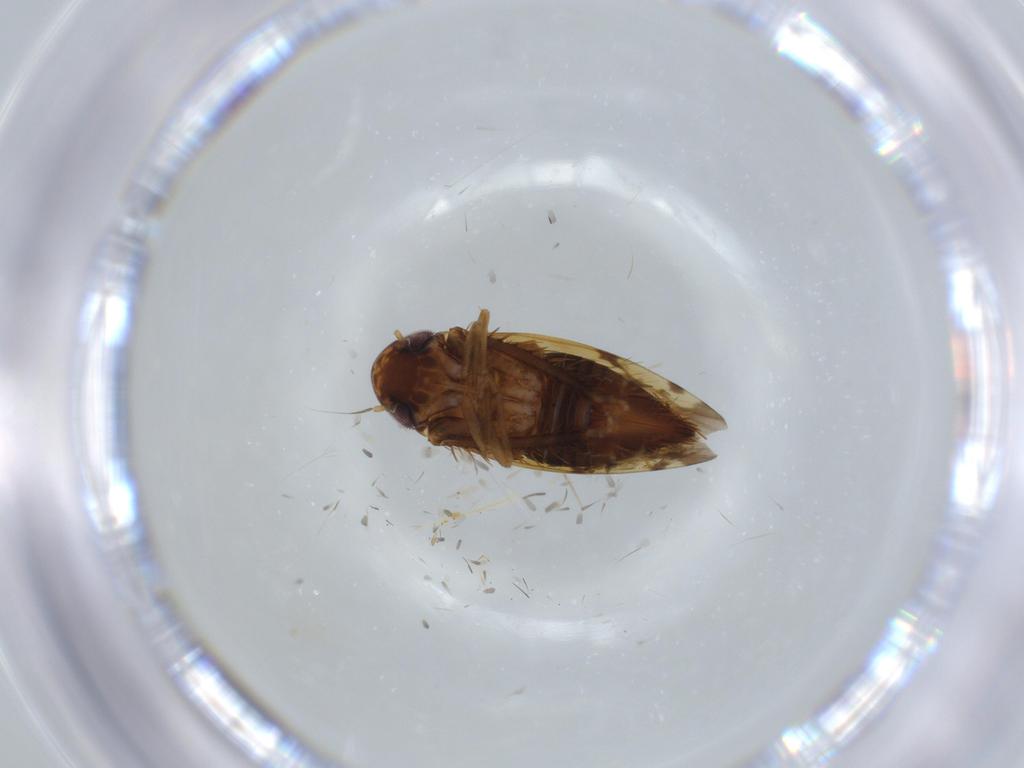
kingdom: Animalia
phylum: Arthropoda
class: Insecta
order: Hemiptera
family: Cicadellidae
